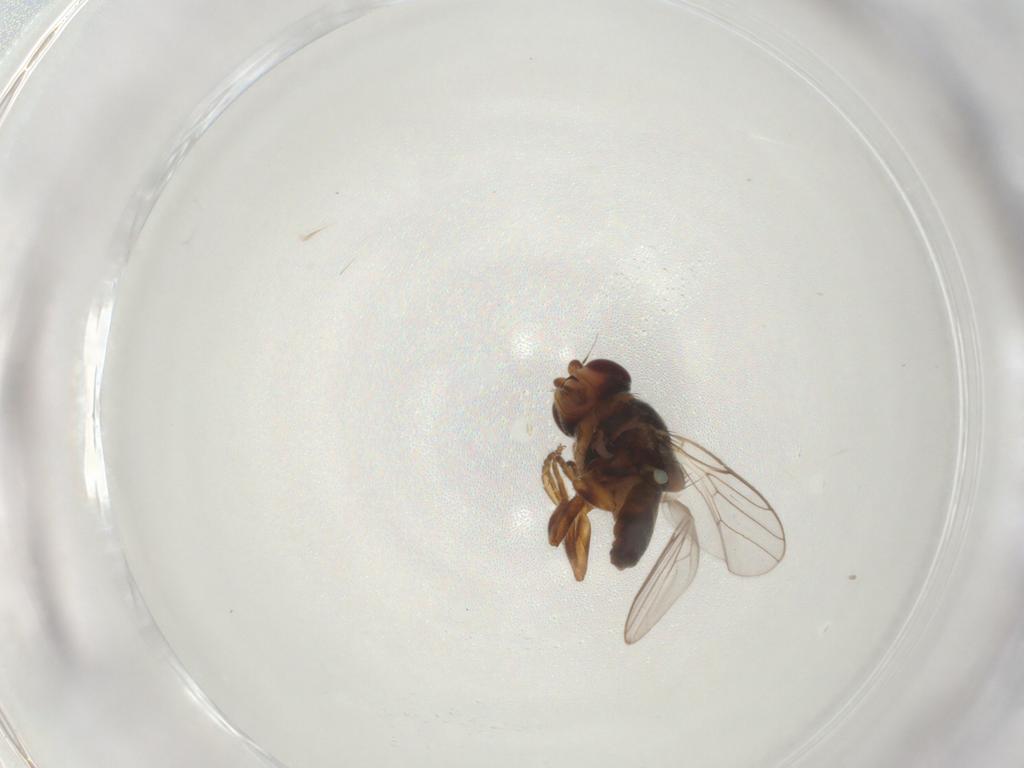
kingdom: Animalia
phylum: Arthropoda
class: Insecta
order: Diptera
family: Chloropidae
